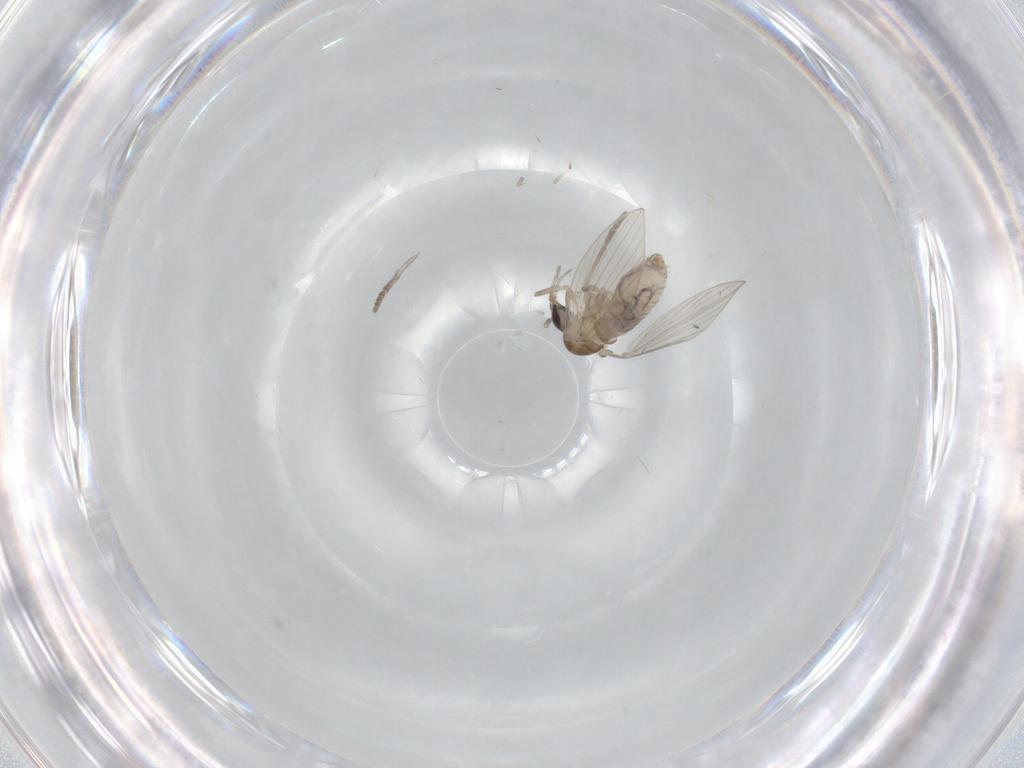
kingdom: Animalia
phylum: Arthropoda
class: Insecta
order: Diptera
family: Psychodidae
